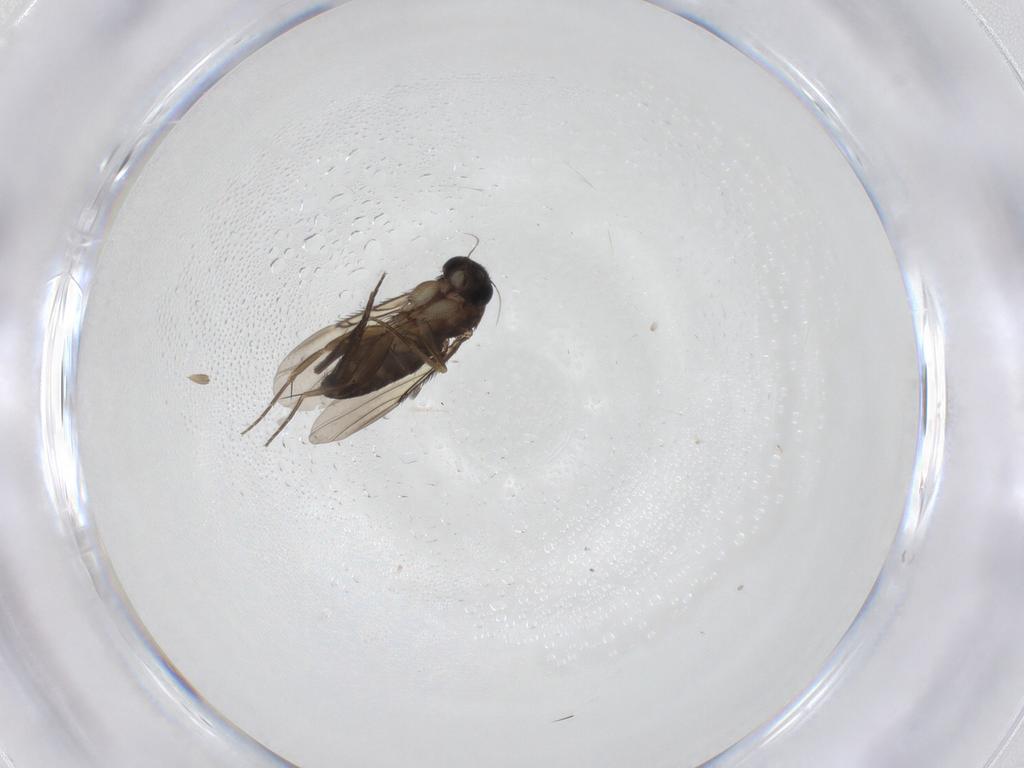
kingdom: Animalia
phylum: Arthropoda
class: Insecta
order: Diptera
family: Phoridae
